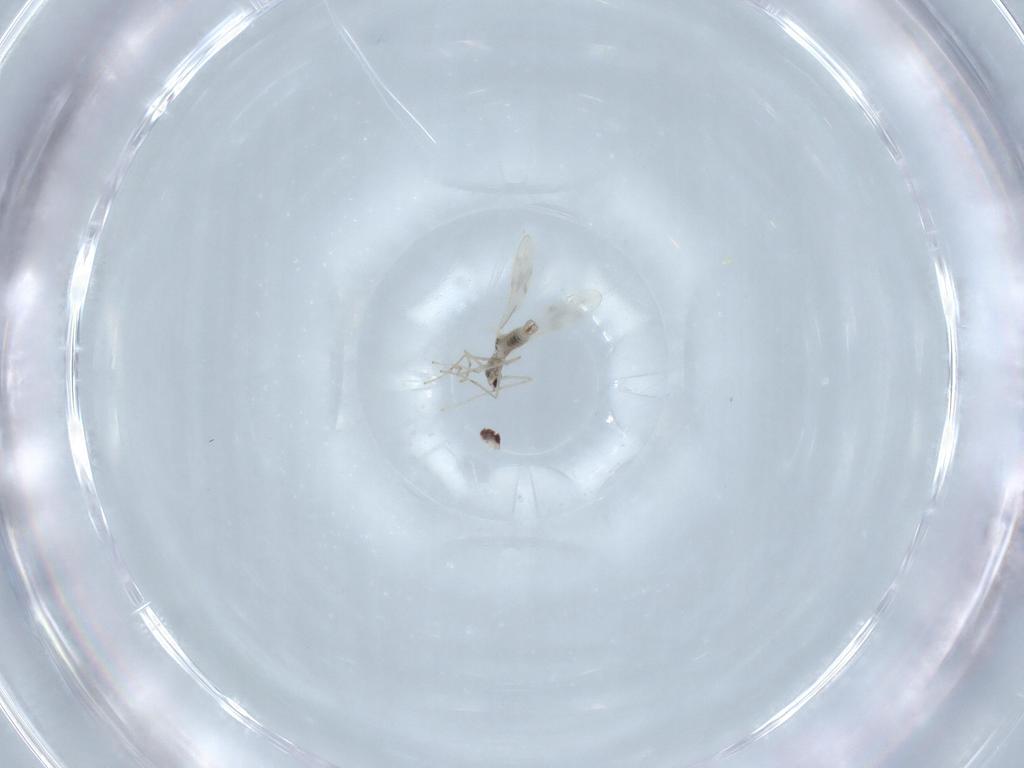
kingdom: Animalia
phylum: Arthropoda
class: Insecta
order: Diptera
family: Cecidomyiidae
